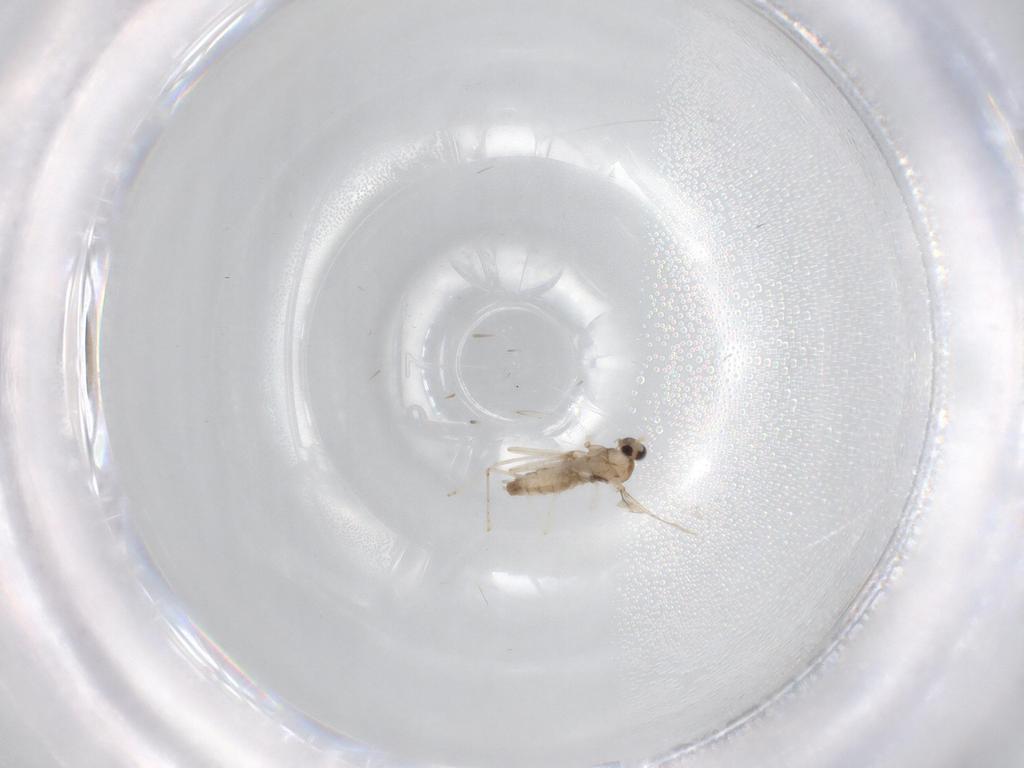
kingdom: Animalia
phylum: Arthropoda
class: Insecta
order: Diptera
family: Cecidomyiidae
